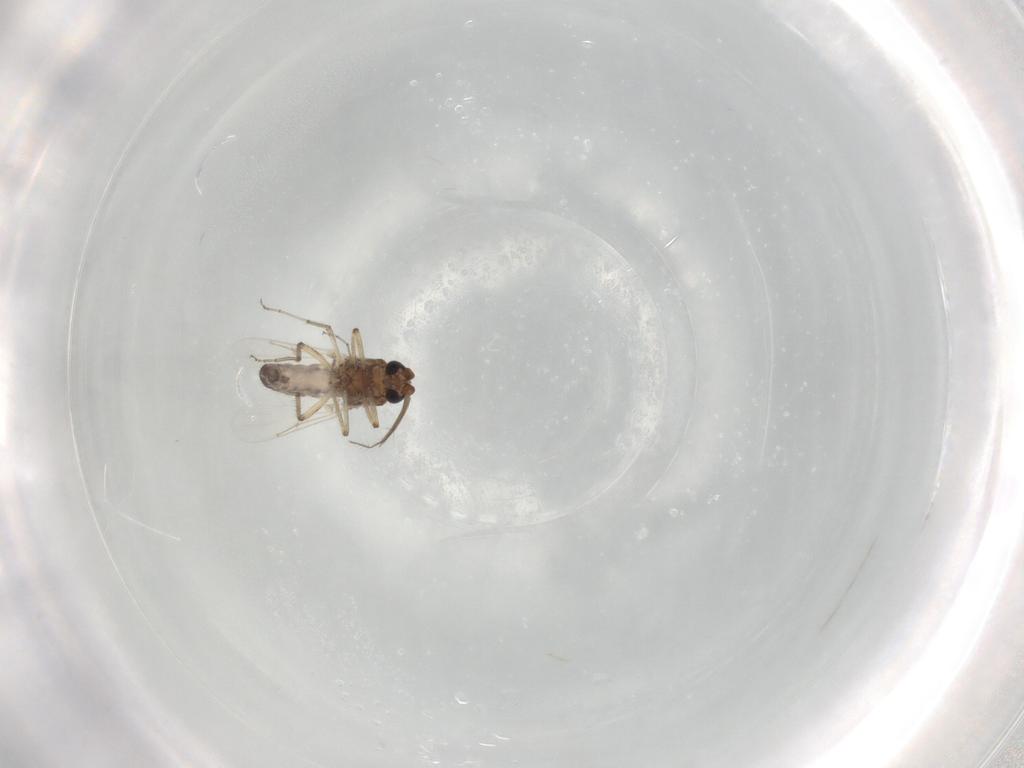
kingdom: Animalia
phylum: Arthropoda
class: Insecta
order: Diptera
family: Ceratopogonidae
